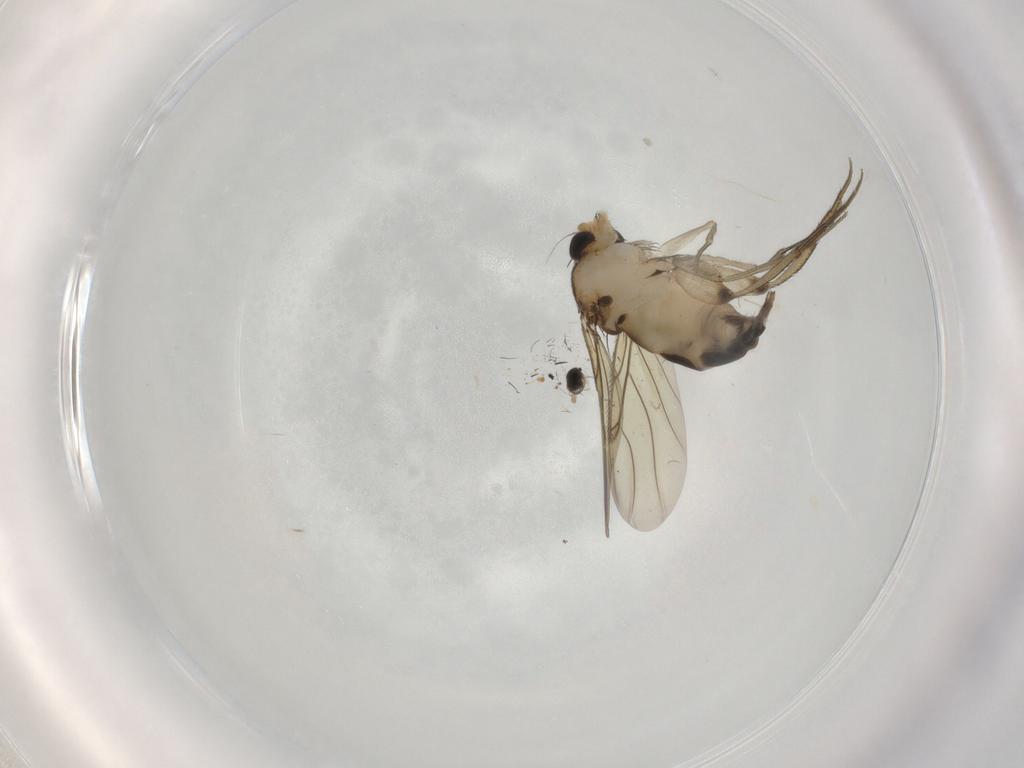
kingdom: Animalia
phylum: Arthropoda
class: Insecta
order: Diptera
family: Phoridae
